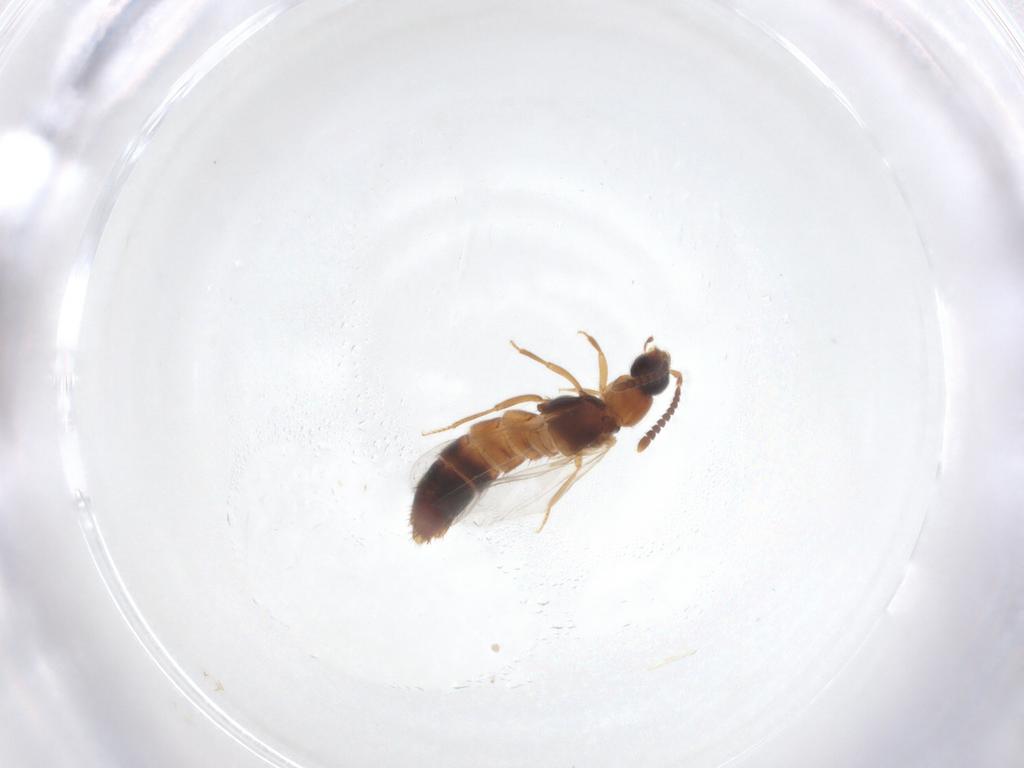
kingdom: Animalia
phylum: Arthropoda
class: Insecta
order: Coleoptera
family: Staphylinidae
